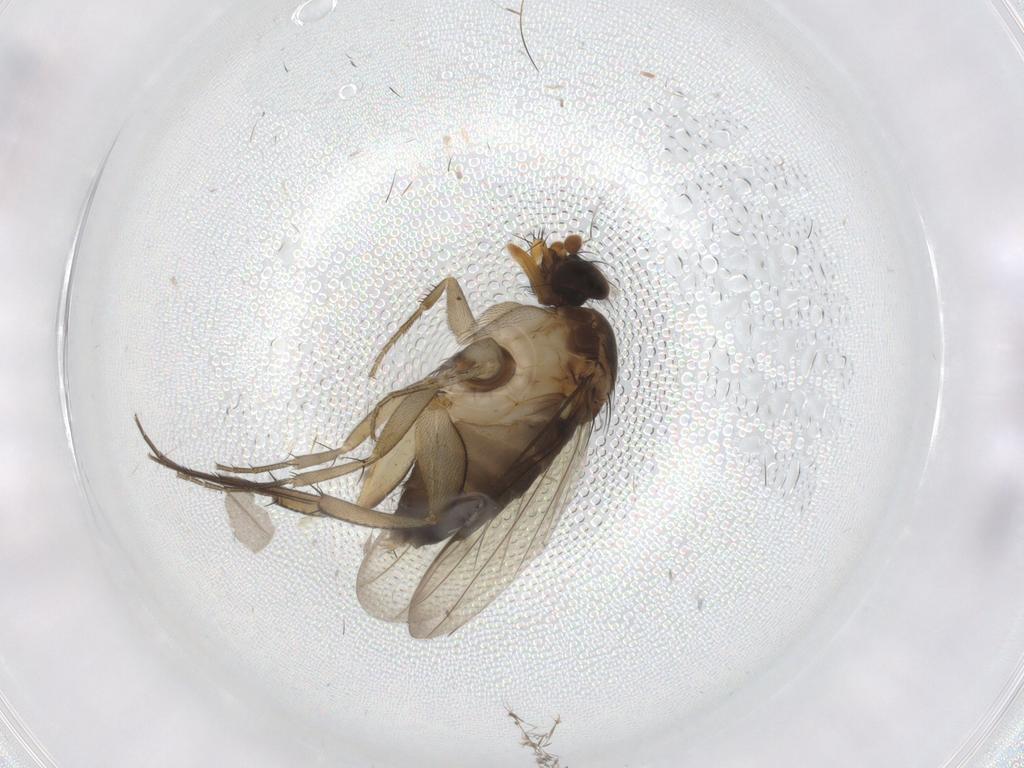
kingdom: Animalia
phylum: Arthropoda
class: Insecta
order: Diptera
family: Phoridae
